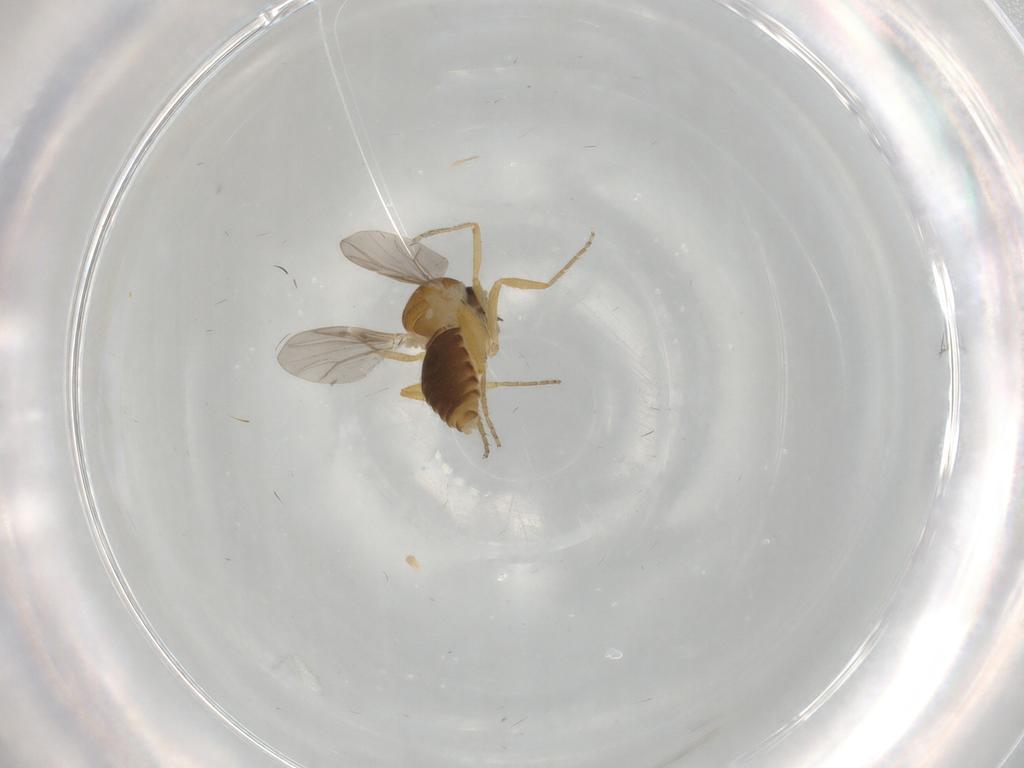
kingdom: Animalia
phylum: Arthropoda
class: Insecta
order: Diptera
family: Ceratopogonidae
